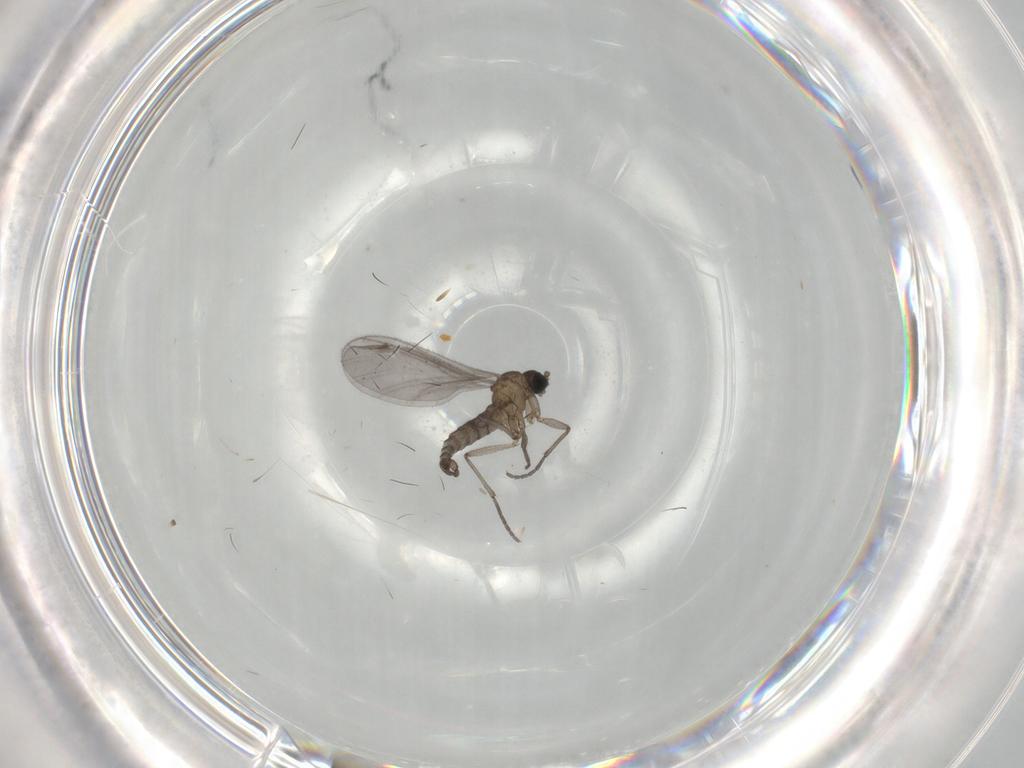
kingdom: Animalia
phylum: Arthropoda
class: Insecta
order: Diptera
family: Sciaridae
